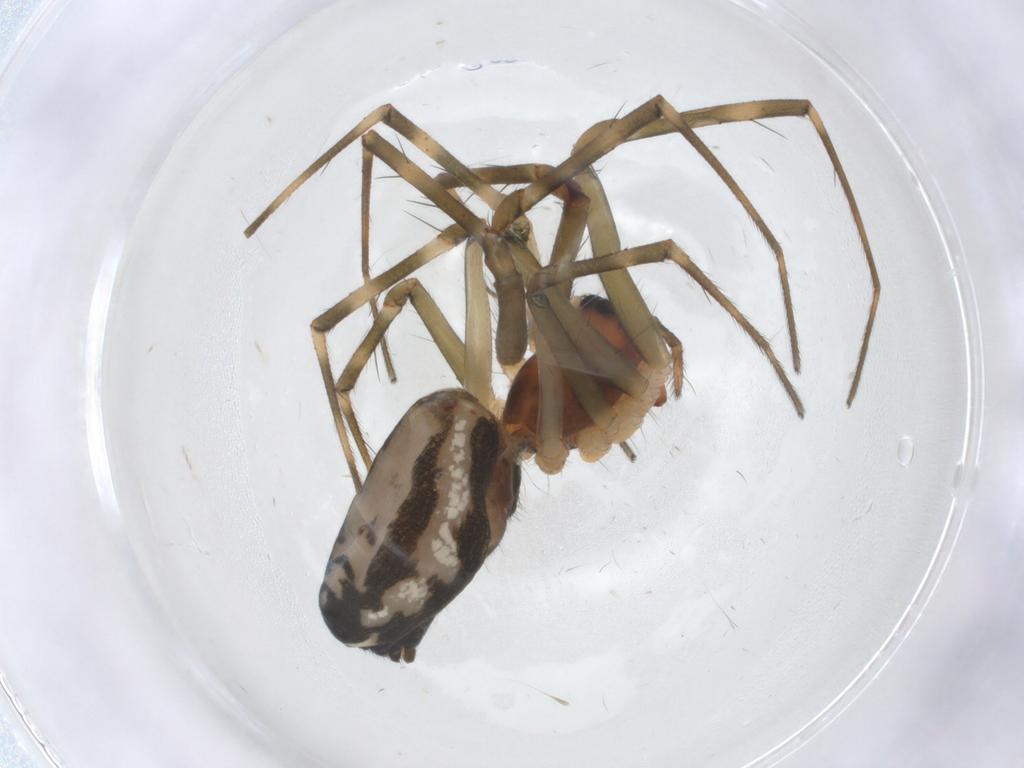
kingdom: Animalia
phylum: Arthropoda
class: Arachnida
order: Araneae
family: Linyphiidae
